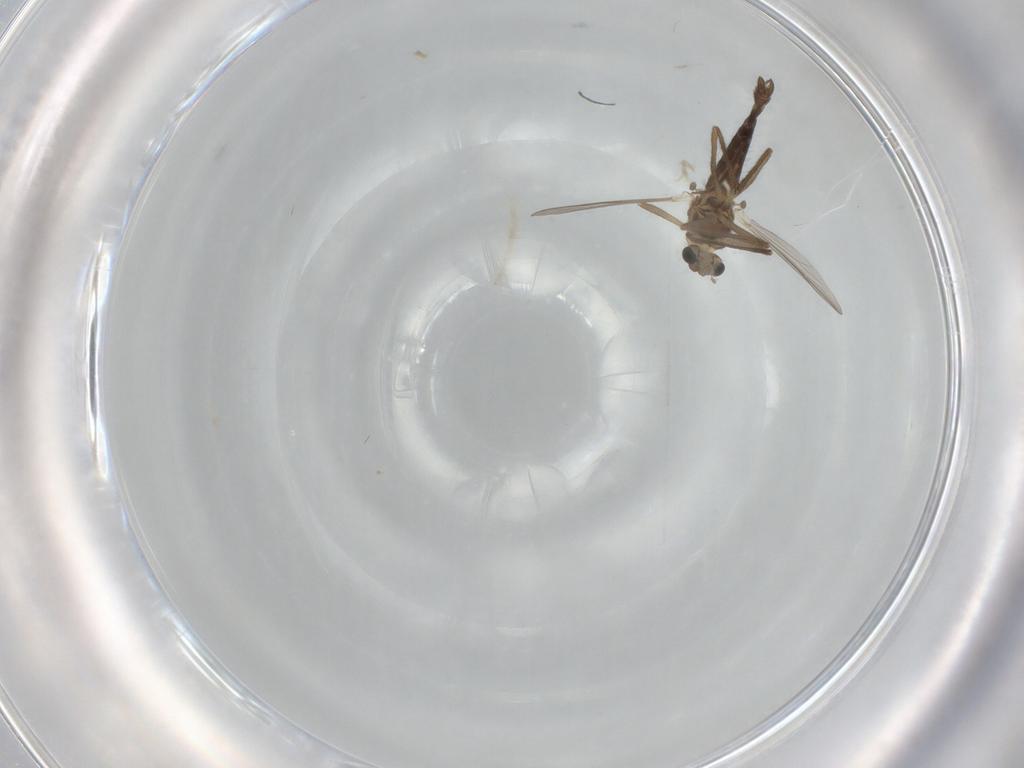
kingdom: Animalia
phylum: Arthropoda
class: Insecta
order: Diptera
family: Chironomidae
